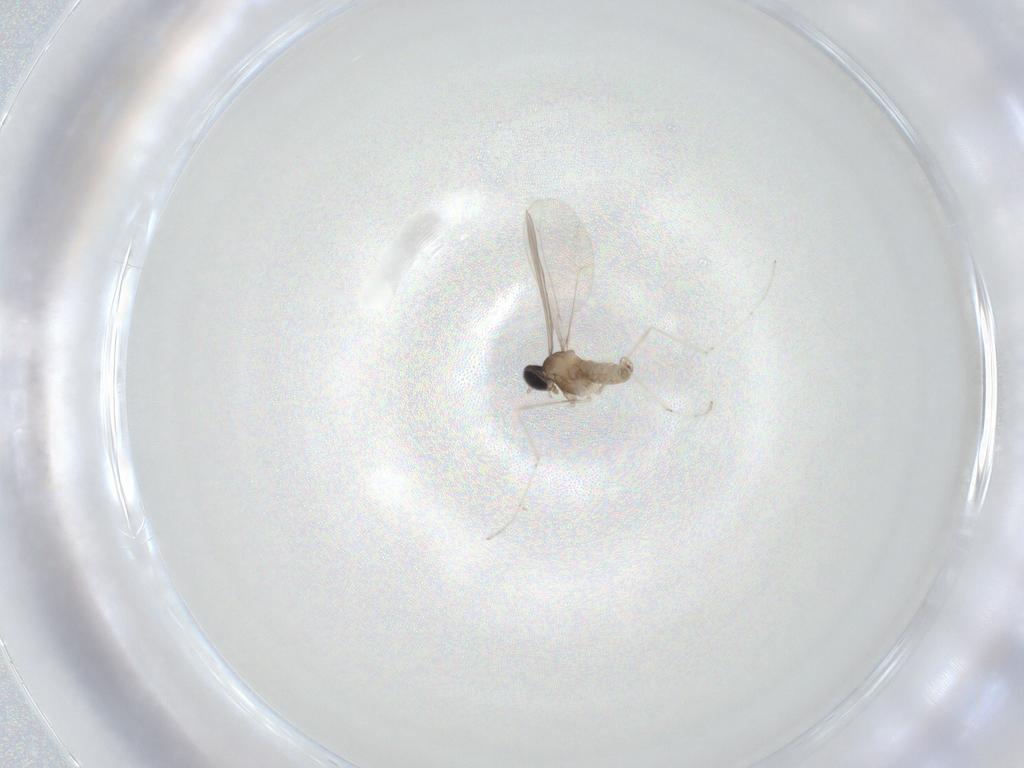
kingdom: Animalia
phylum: Arthropoda
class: Insecta
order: Diptera
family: Cecidomyiidae
